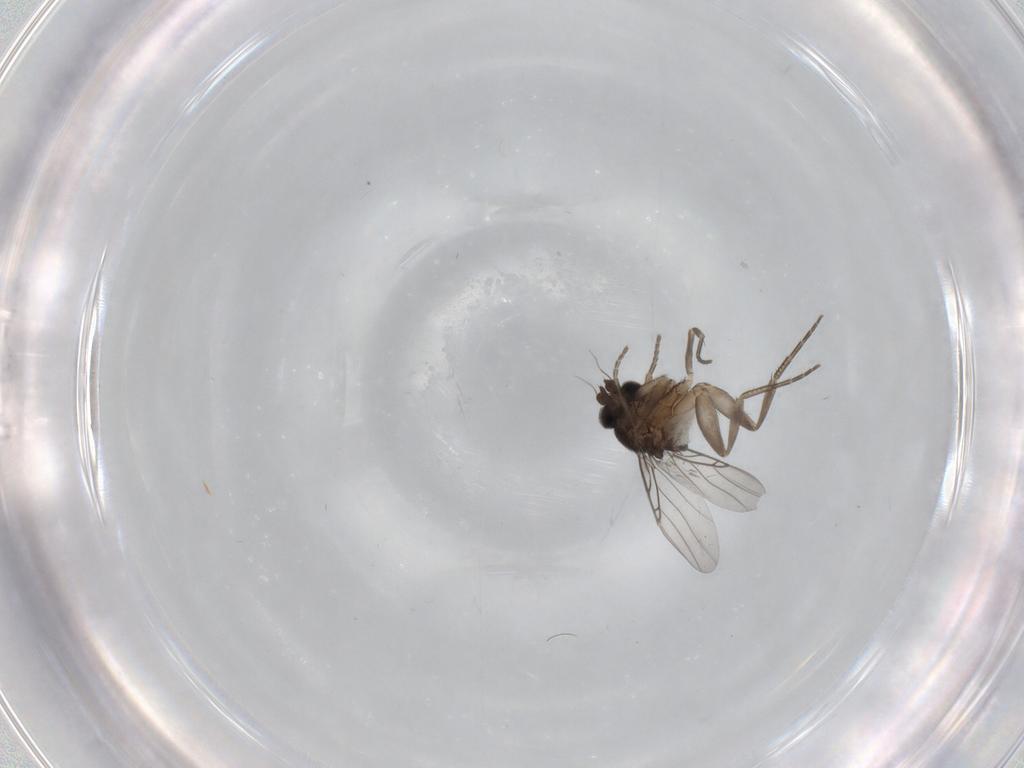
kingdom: Animalia
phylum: Arthropoda
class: Insecta
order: Diptera
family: Phoridae
